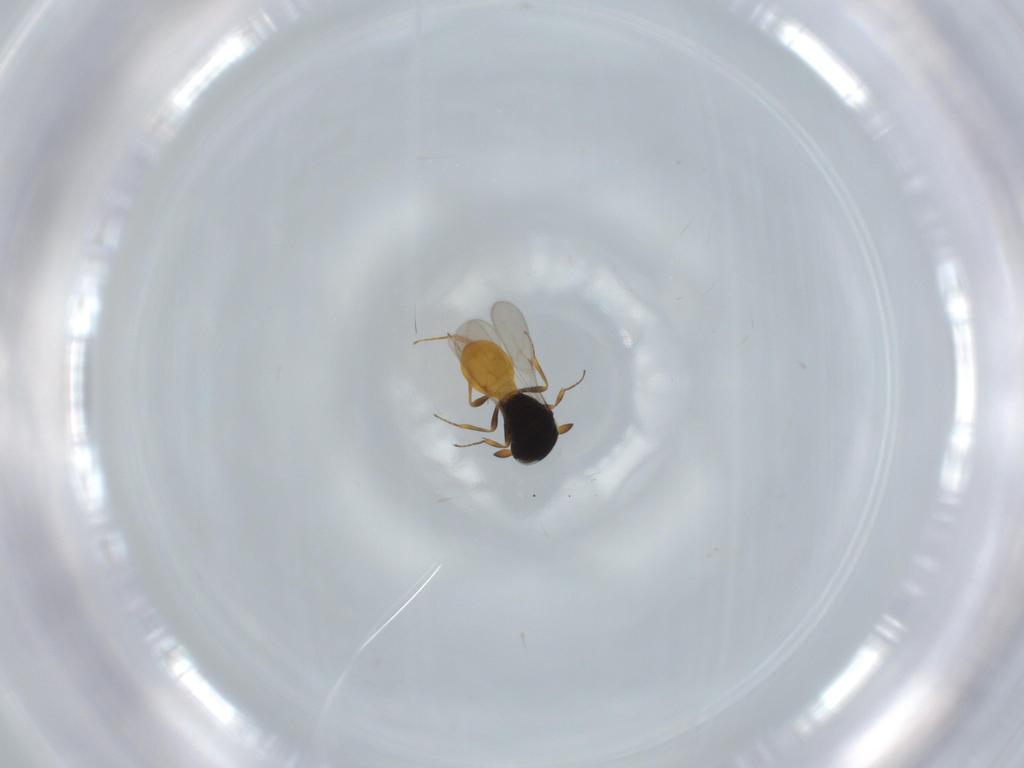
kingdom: Animalia
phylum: Arthropoda
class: Insecta
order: Hymenoptera
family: Scelionidae
